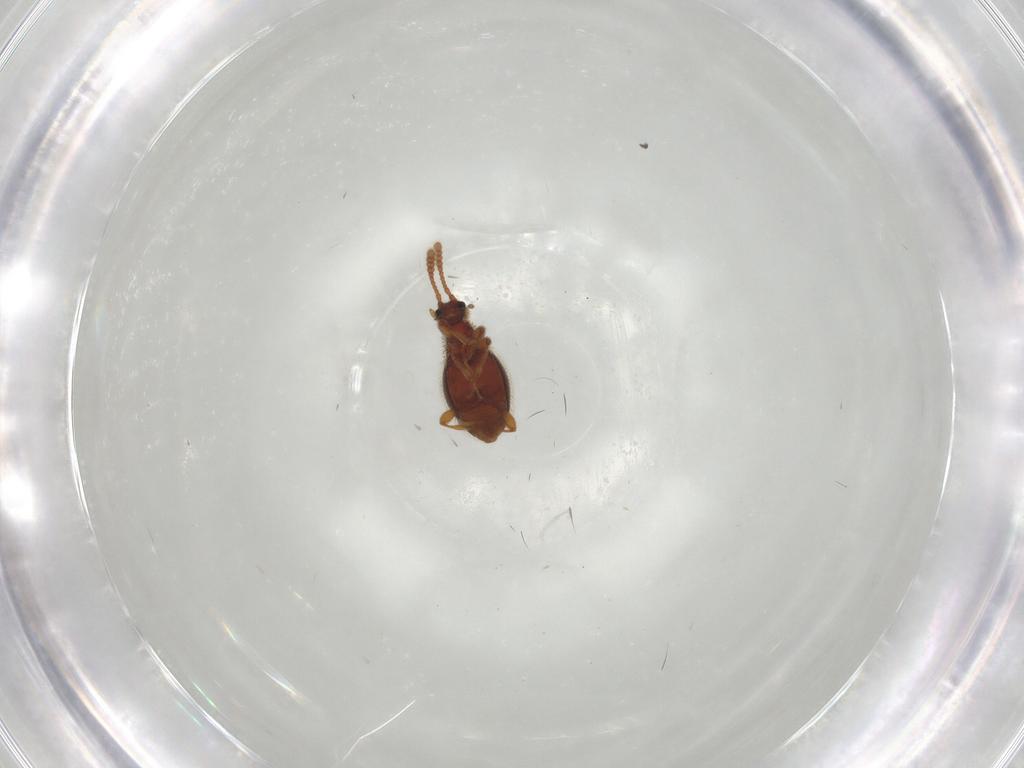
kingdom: Animalia
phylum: Arthropoda
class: Insecta
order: Coleoptera
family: Staphylinidae
